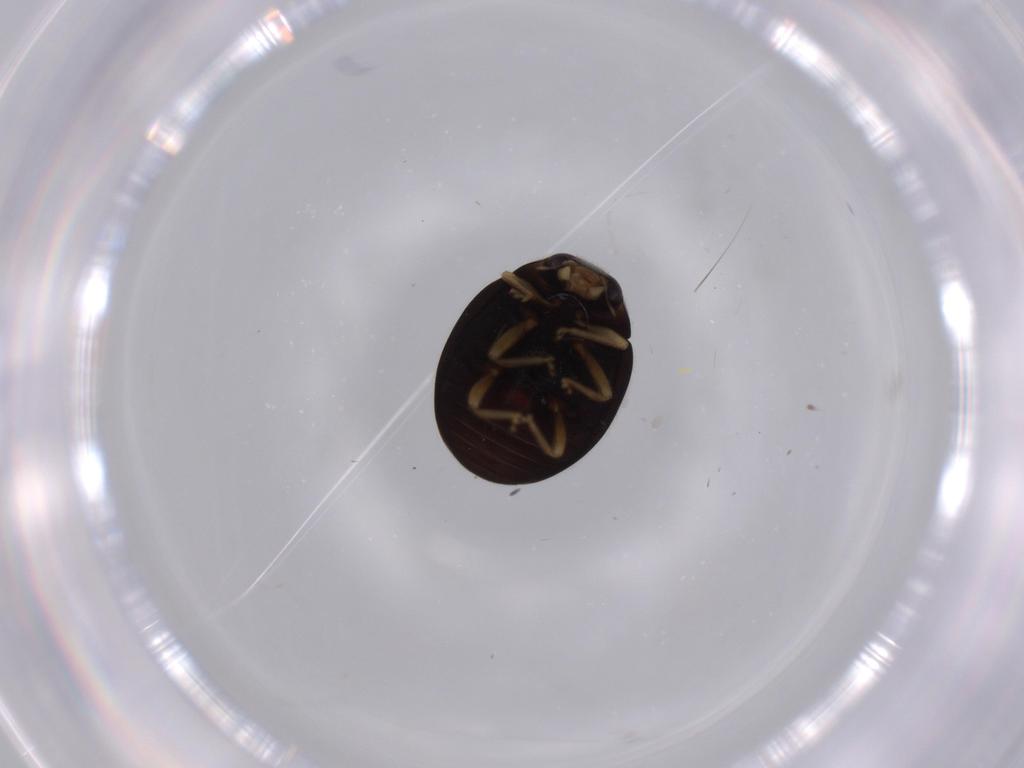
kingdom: Animalia
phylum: Arthropoda
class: Insecta
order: Coleoptera
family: Coccinellidae
